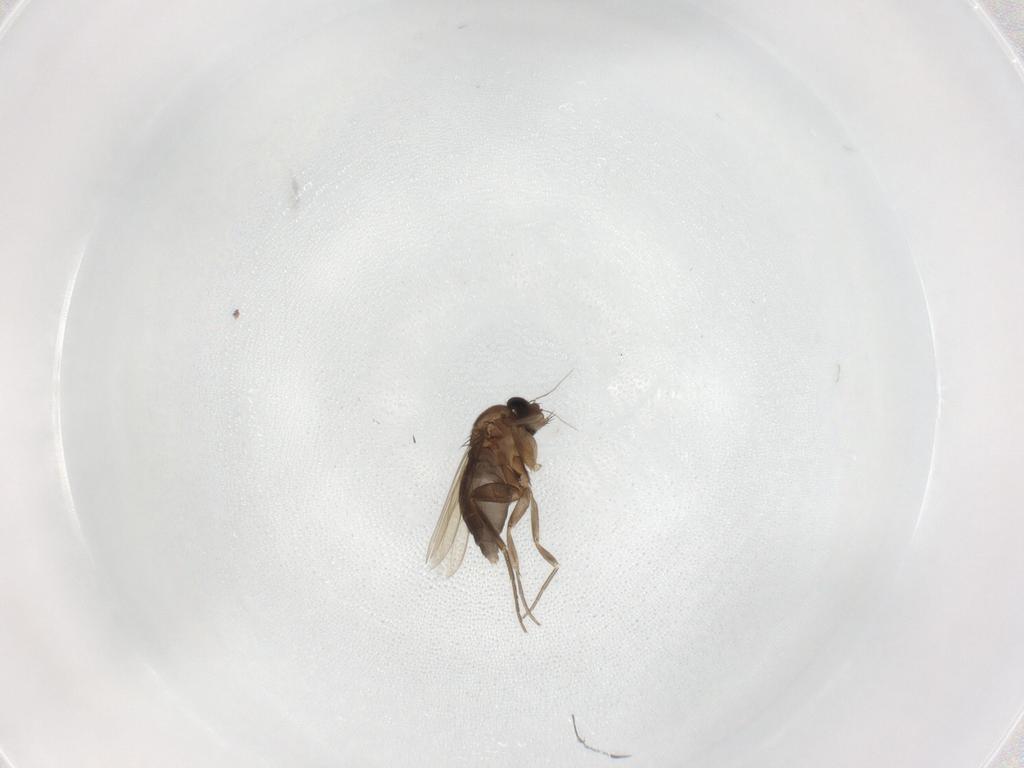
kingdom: Animalia
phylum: Arthropoda
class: Insecta
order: Diptera
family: Phoridae
